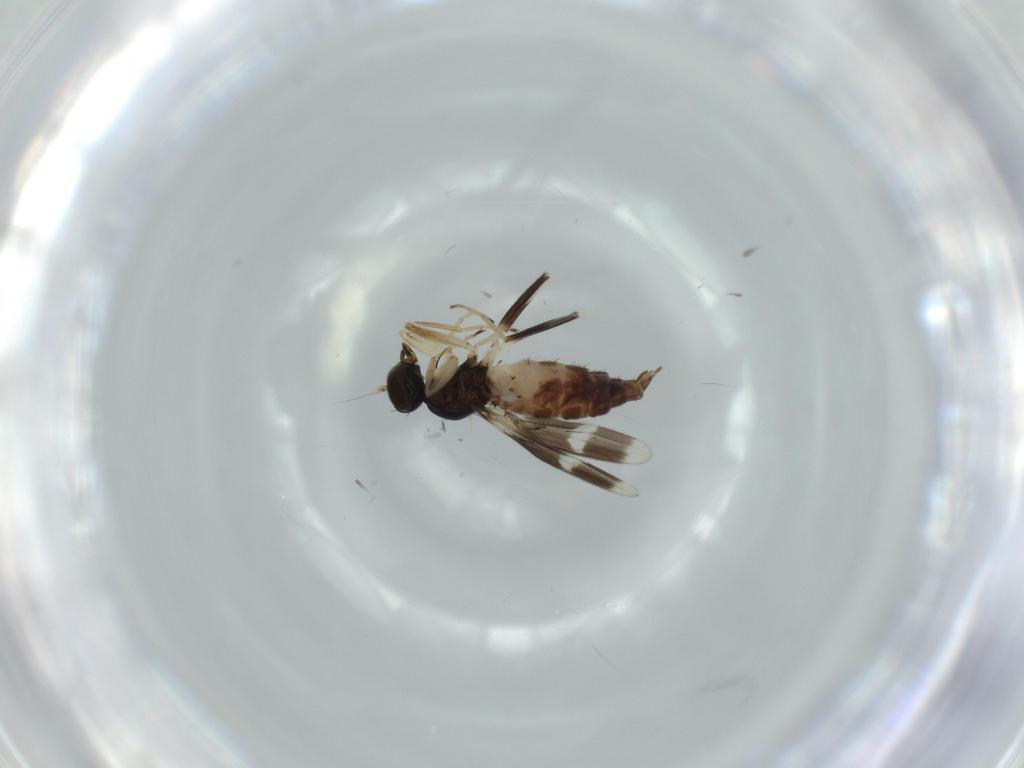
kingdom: Animalia
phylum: Arthropoda
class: Insecta
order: Diptera
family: Hybotidae
